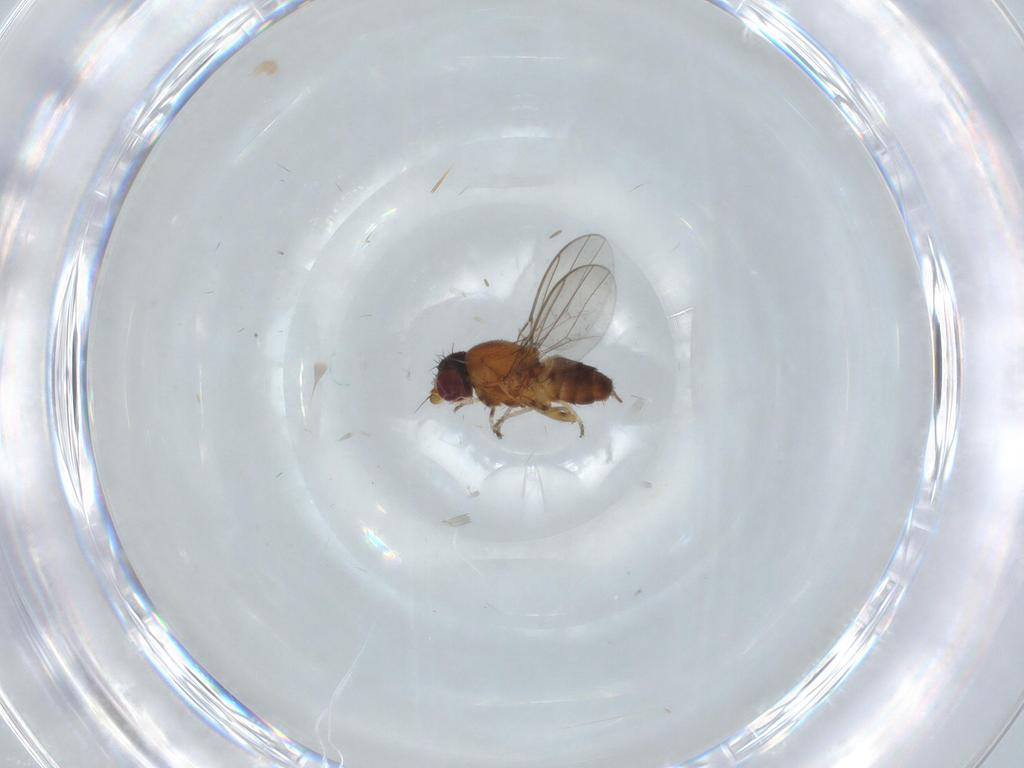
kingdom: Animalia
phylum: Arthropoda
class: Insecta
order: Diptera
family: Chloropidae
